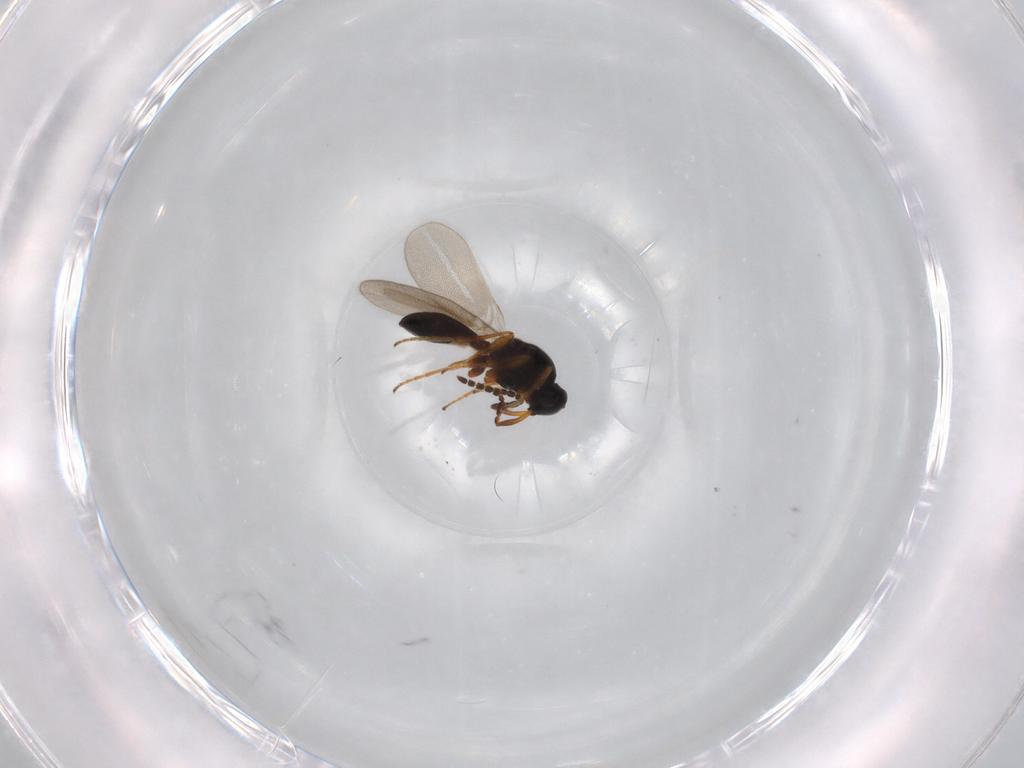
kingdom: Animalia
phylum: Arthropoda
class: Insecta
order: Hymenoptera
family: Platygastridae
